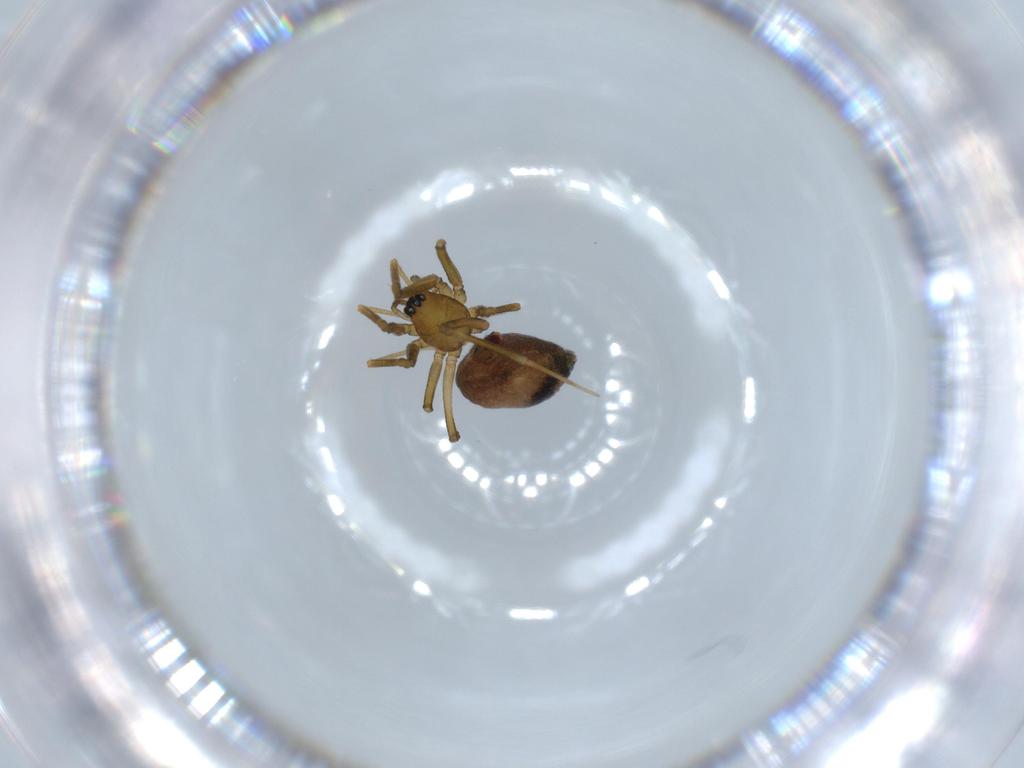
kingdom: Animalia
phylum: Arthropoda
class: Arachnida
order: Araneae
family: Linyphiidae
